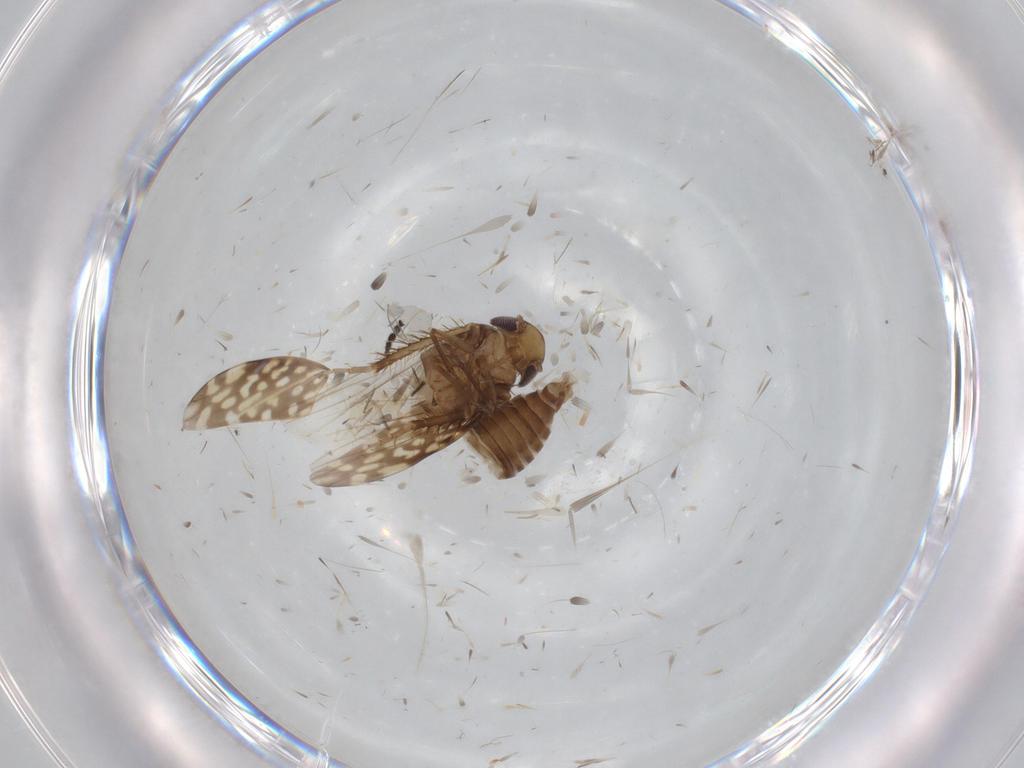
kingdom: Animalia
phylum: Arthropoda
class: Insecta
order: Hemiptera
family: Cicadellidae
